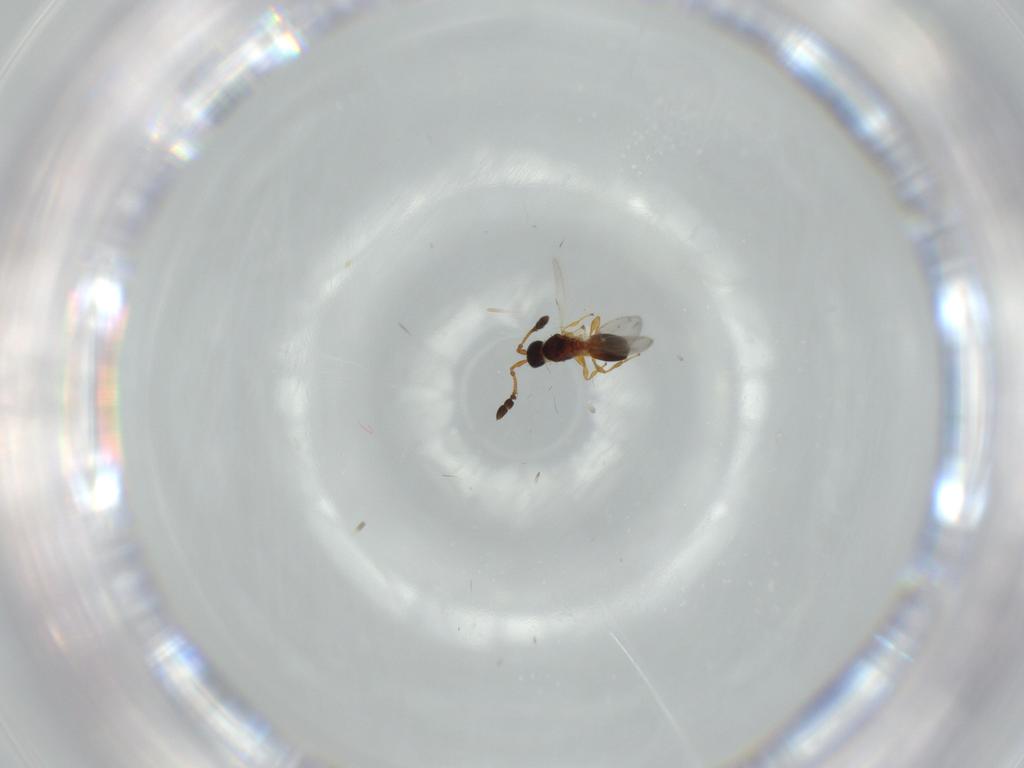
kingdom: Animalia
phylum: Arthropoda
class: Insecta
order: Hymenoptera
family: Diapriidae
